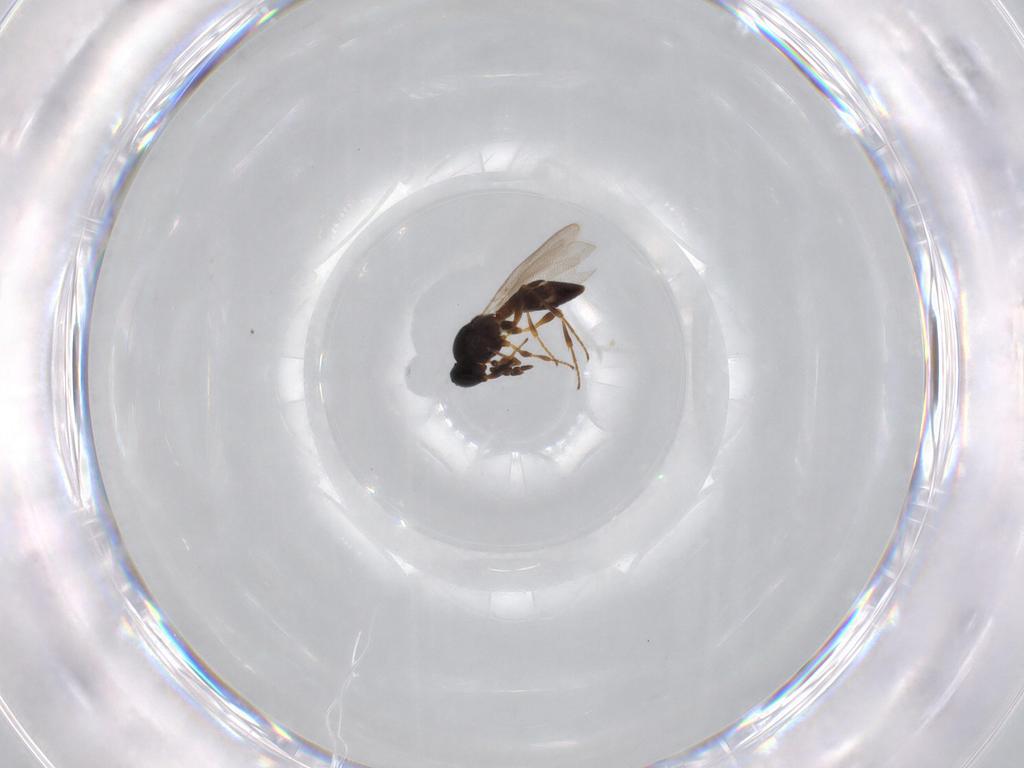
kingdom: Animalia
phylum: Arthropoda
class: Insecta
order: Hymenoptera
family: Platygastridae
